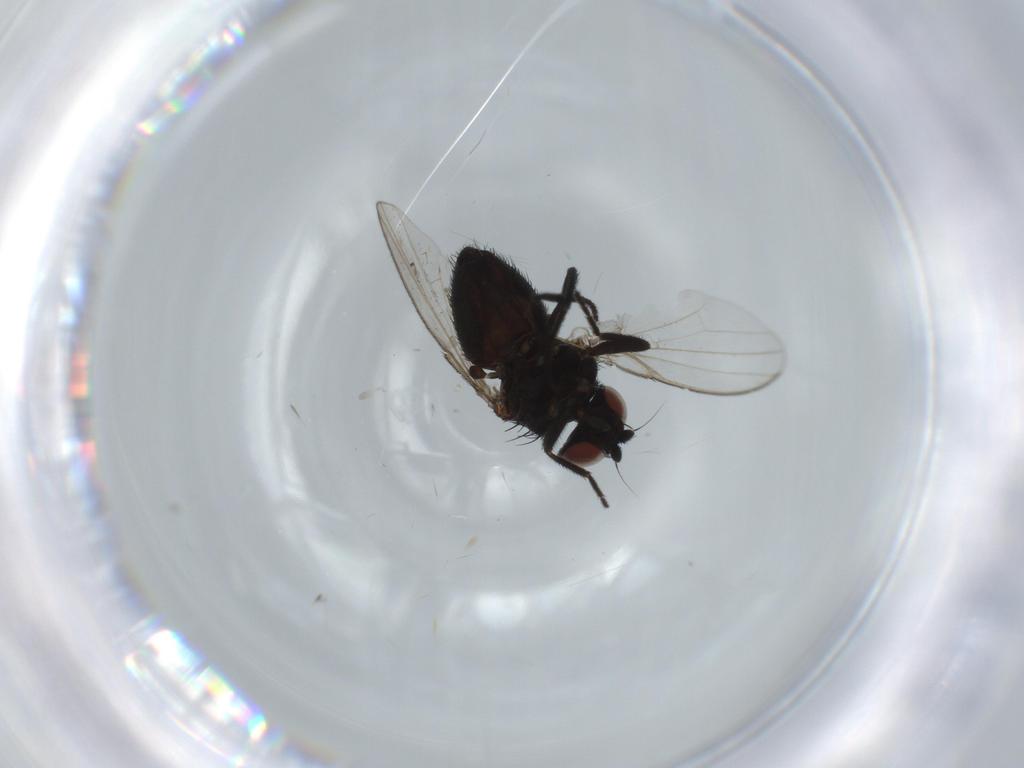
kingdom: Animalia
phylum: Arthropoda
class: Insecta
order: Diptera
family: Milichiidae
